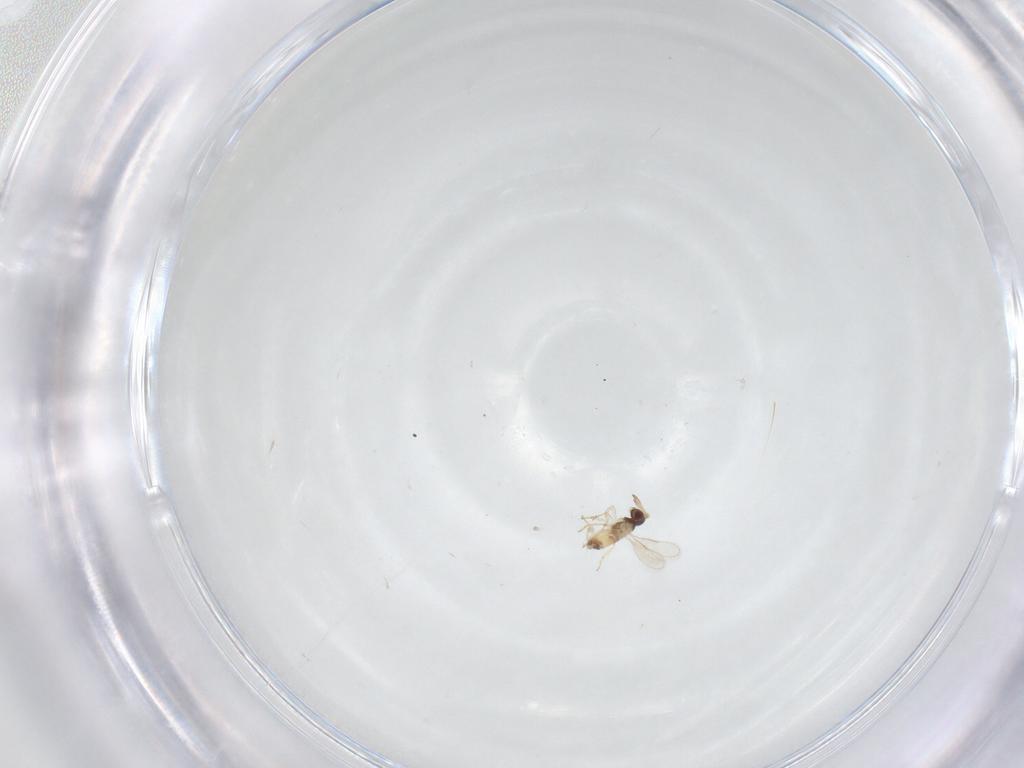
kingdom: Animalia
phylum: Arthropoda
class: Insecta
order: Hymenoptera
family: Aphelinidae
